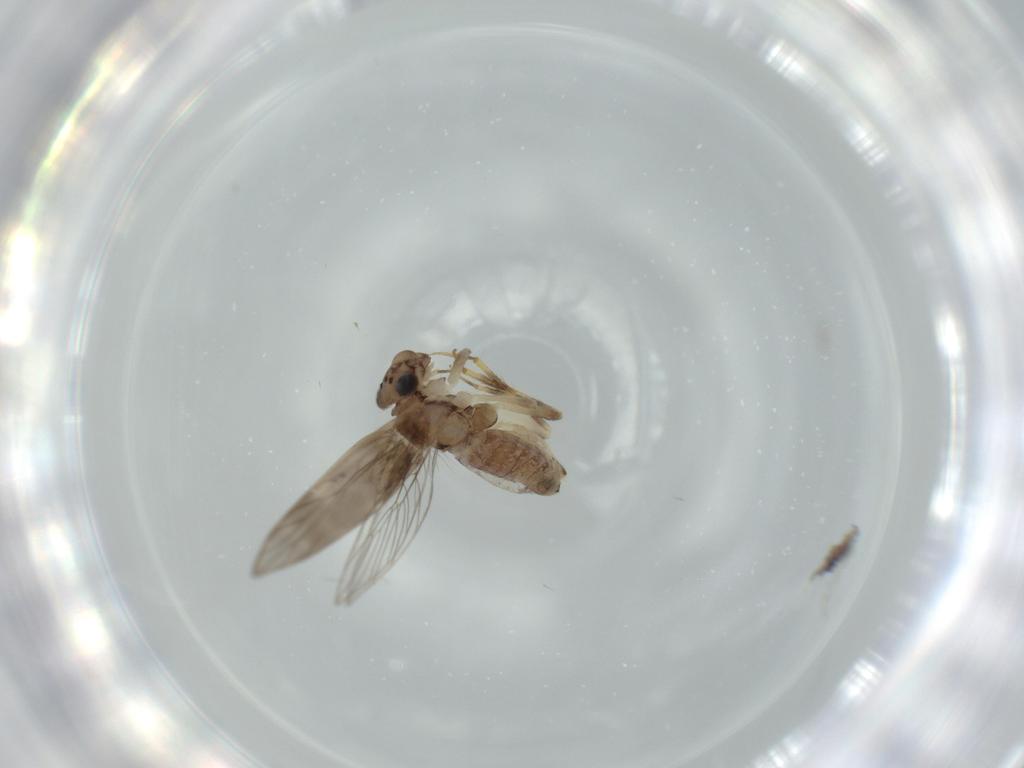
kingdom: Animalia
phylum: Arthropoda
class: Insecta
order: Psocodea
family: Lepidopsocidae
